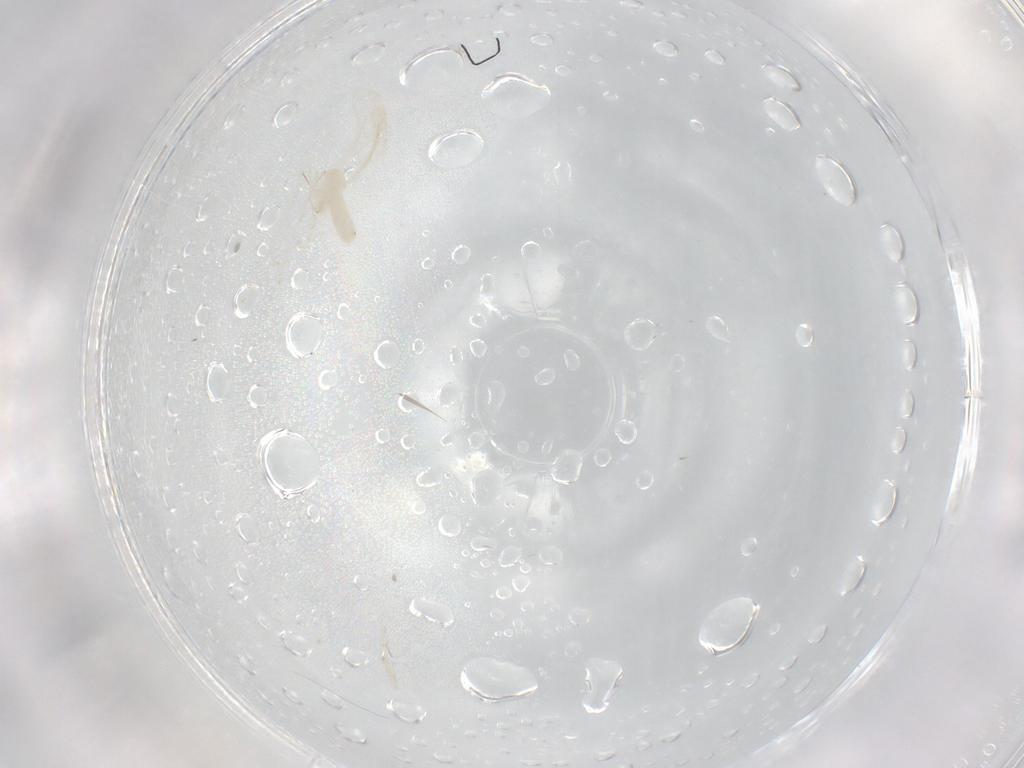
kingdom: Animalia
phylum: Arthropoda
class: Insecta
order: Diptera
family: Cecidomyiidae
